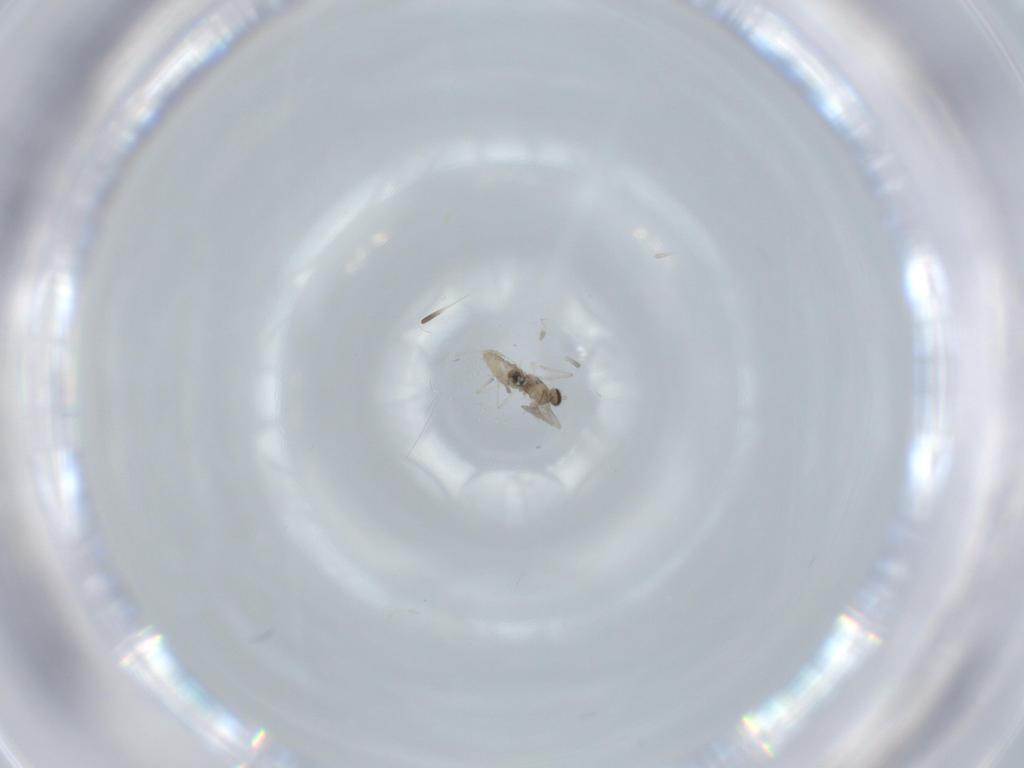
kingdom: Animalia
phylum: Arthropoda
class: Insecta
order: Diptera
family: Cecidomyiidae
